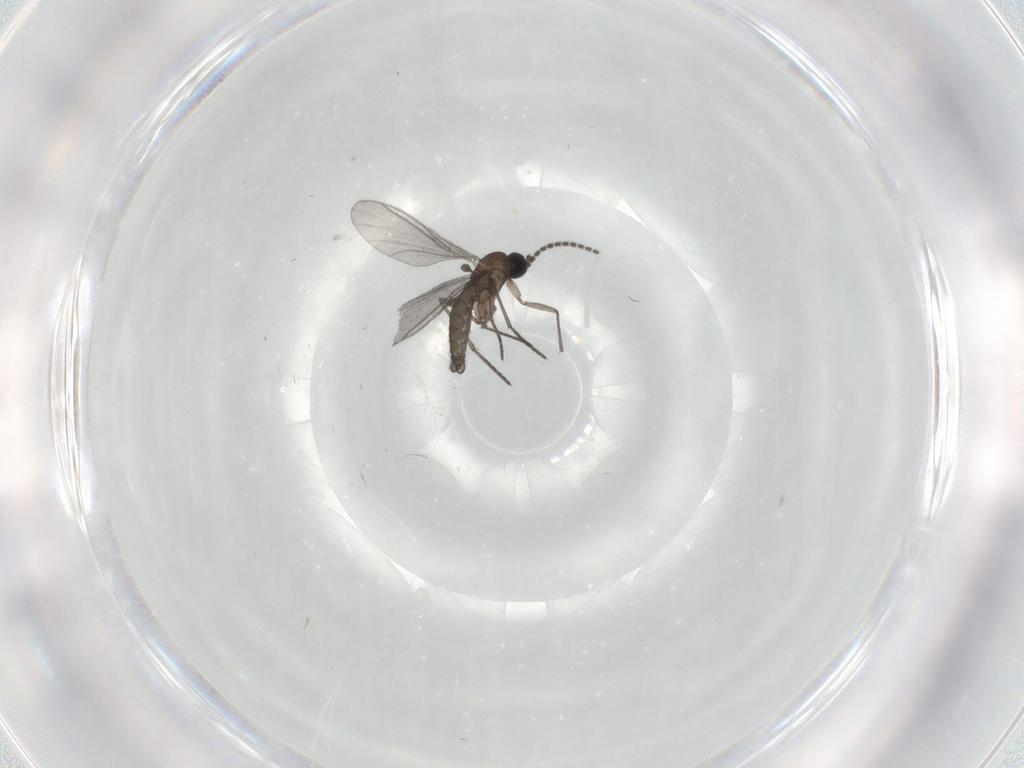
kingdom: Animalia
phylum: Arthropoda
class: Insecta
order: Diptera
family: Cecidomyiidae
